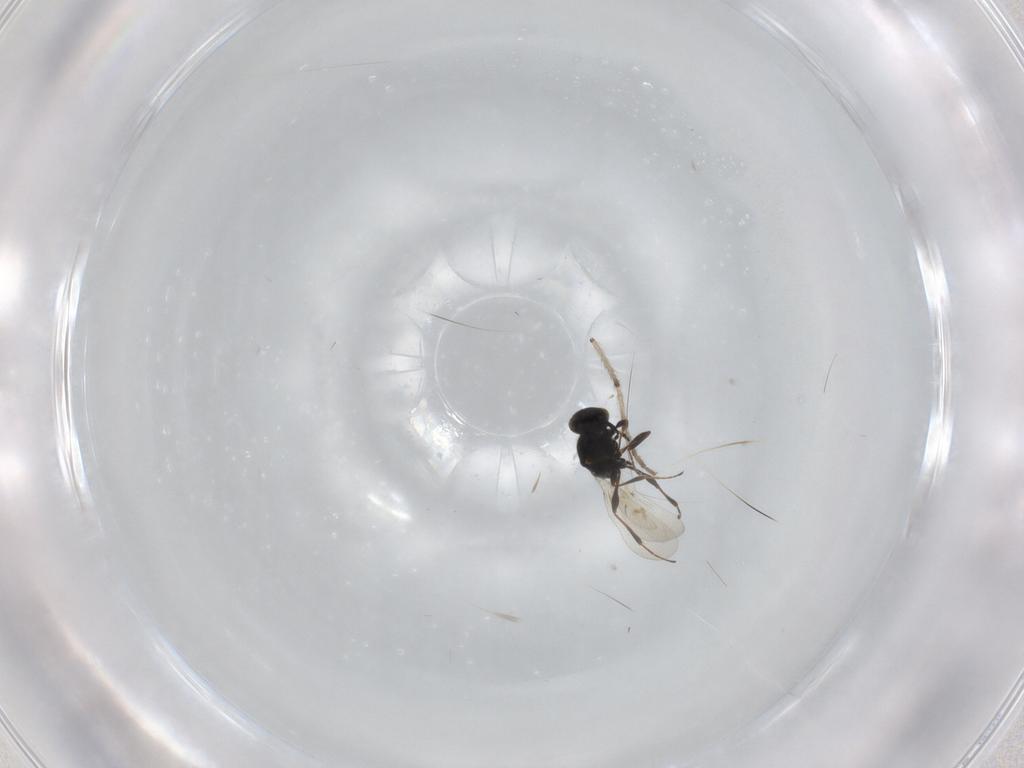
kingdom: Animalia
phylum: Arthropoda
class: Insecta
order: Hymenoptera
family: Platygastridae
